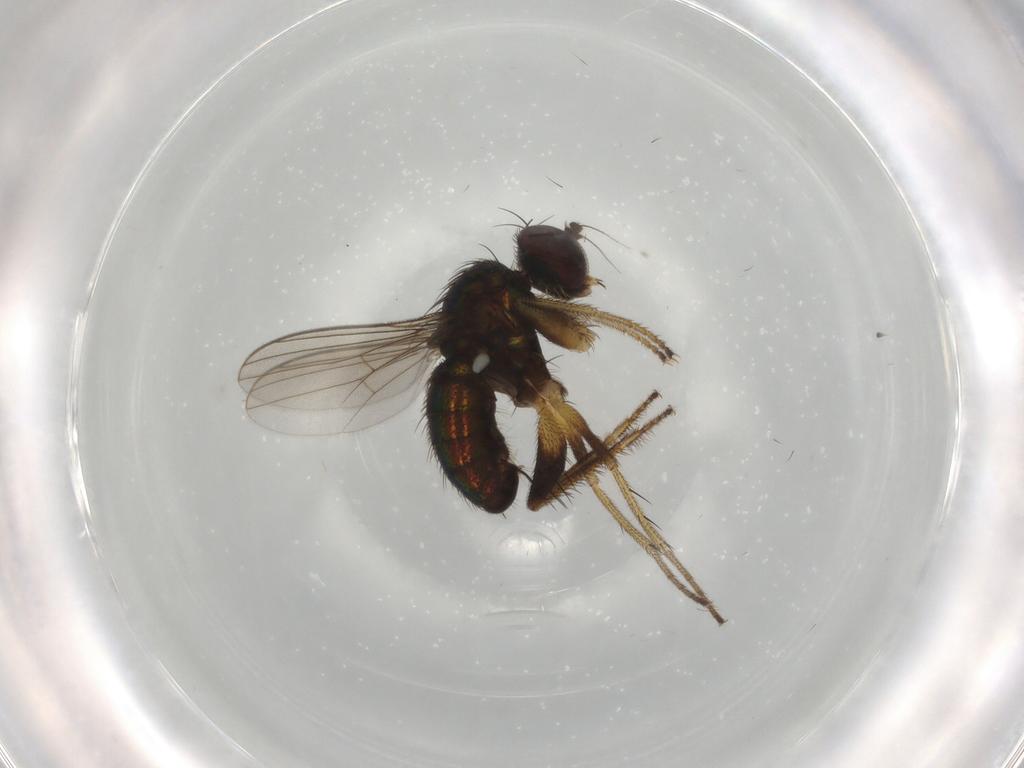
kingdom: Animalia
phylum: Arthropoda
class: Insecta
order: Diptera
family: Dolichopodidae
